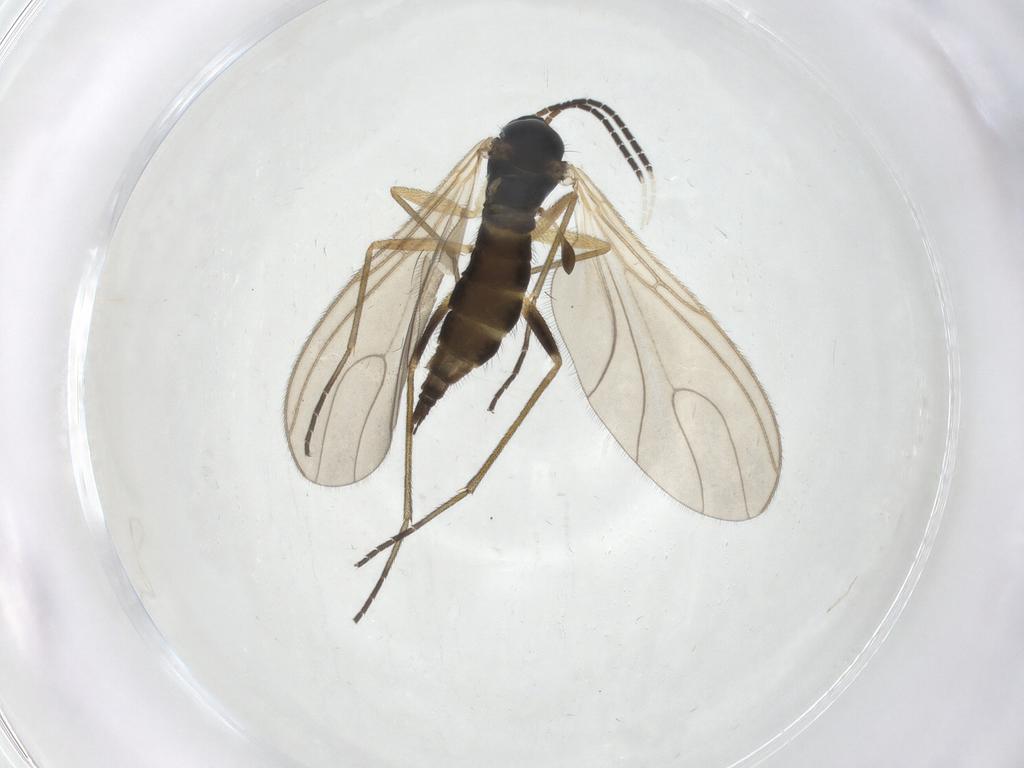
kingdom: Animalia
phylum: Arthropoda
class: Insecta
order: Diptera
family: Sciaridae
